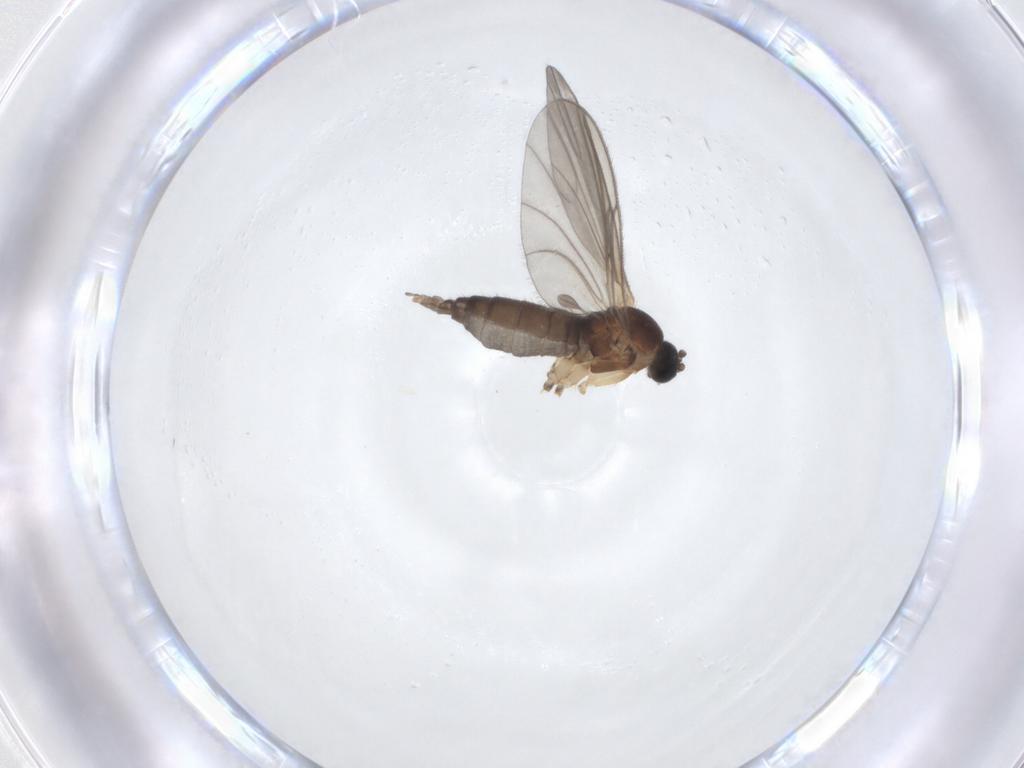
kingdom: Animalia
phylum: Arthropoda
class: Insecta
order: Diptera
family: Sciaridae
